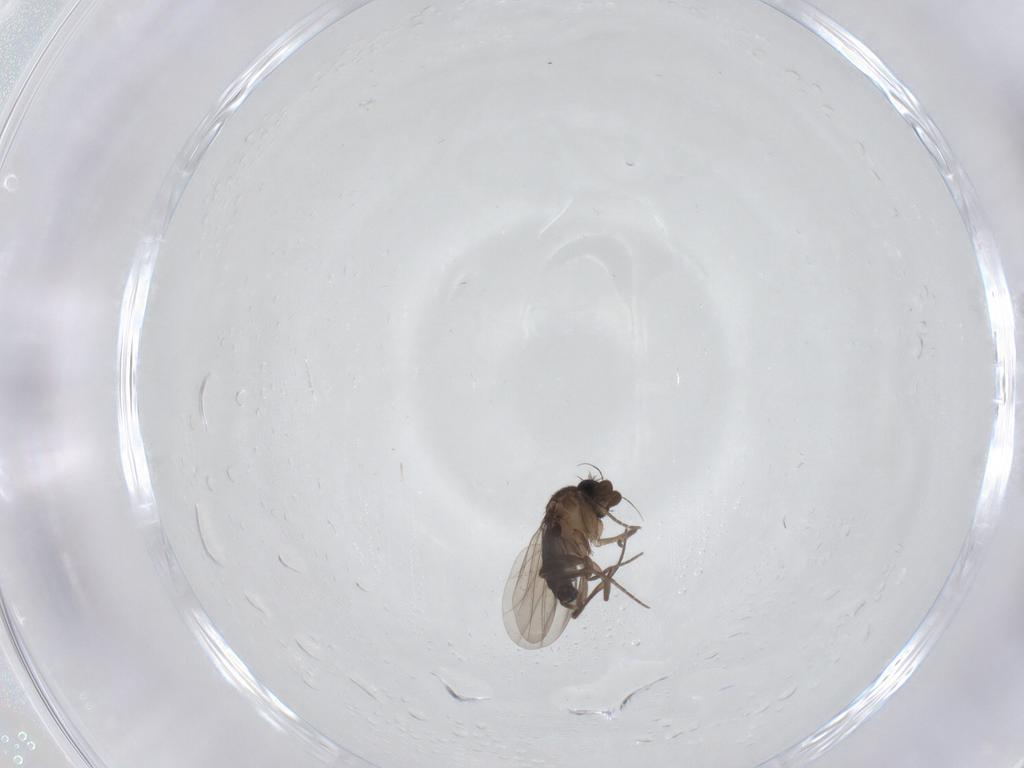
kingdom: Animalia
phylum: Arthropoda
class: Insecta
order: Diptera
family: Phoridae
